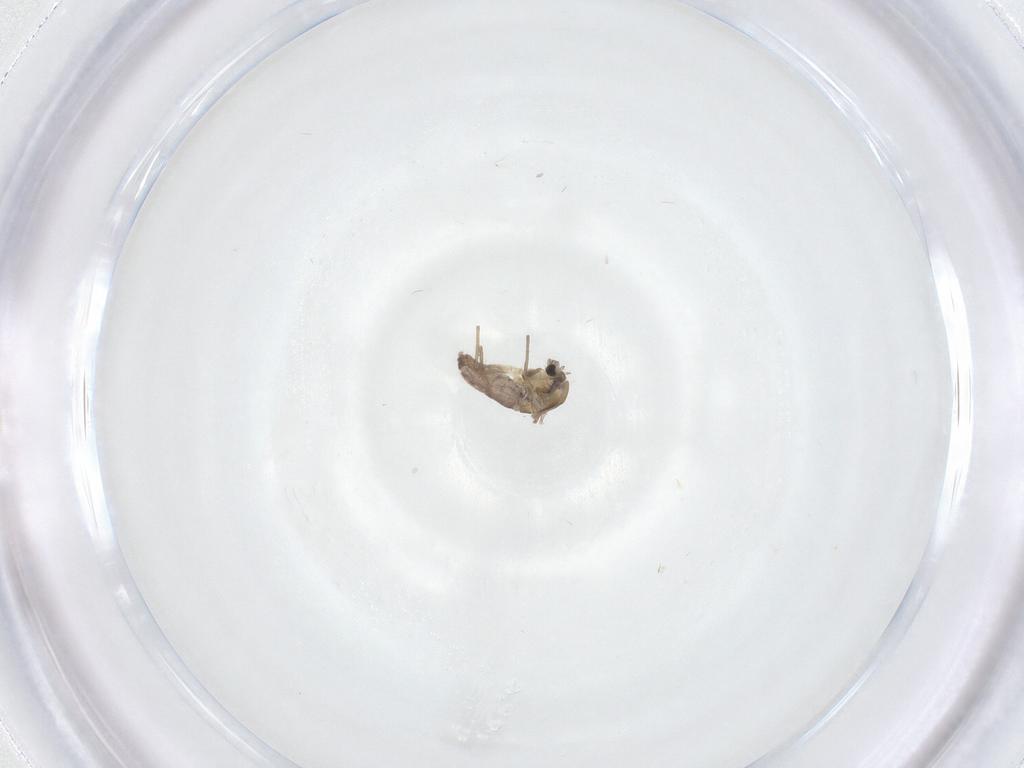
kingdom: Animalia
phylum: Arthropoda
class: Insecta
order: Diptera
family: Chironomidae
